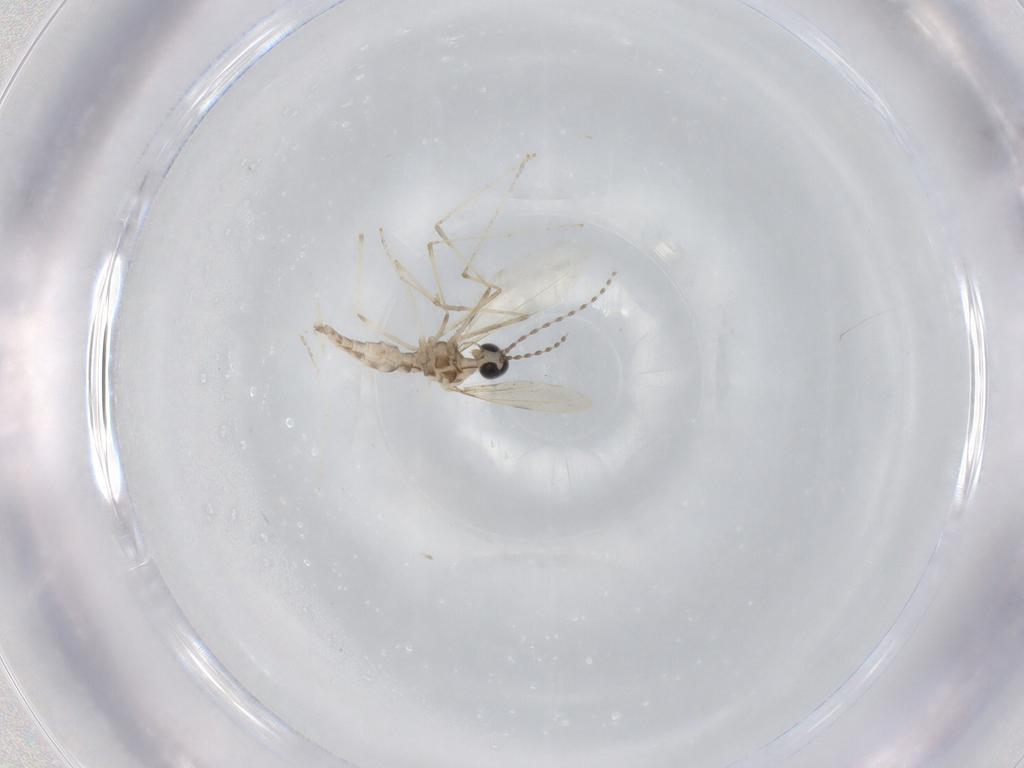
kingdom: Animalia
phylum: Arthropoda
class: Insecta
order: Diptera
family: Cecidomyiidae
